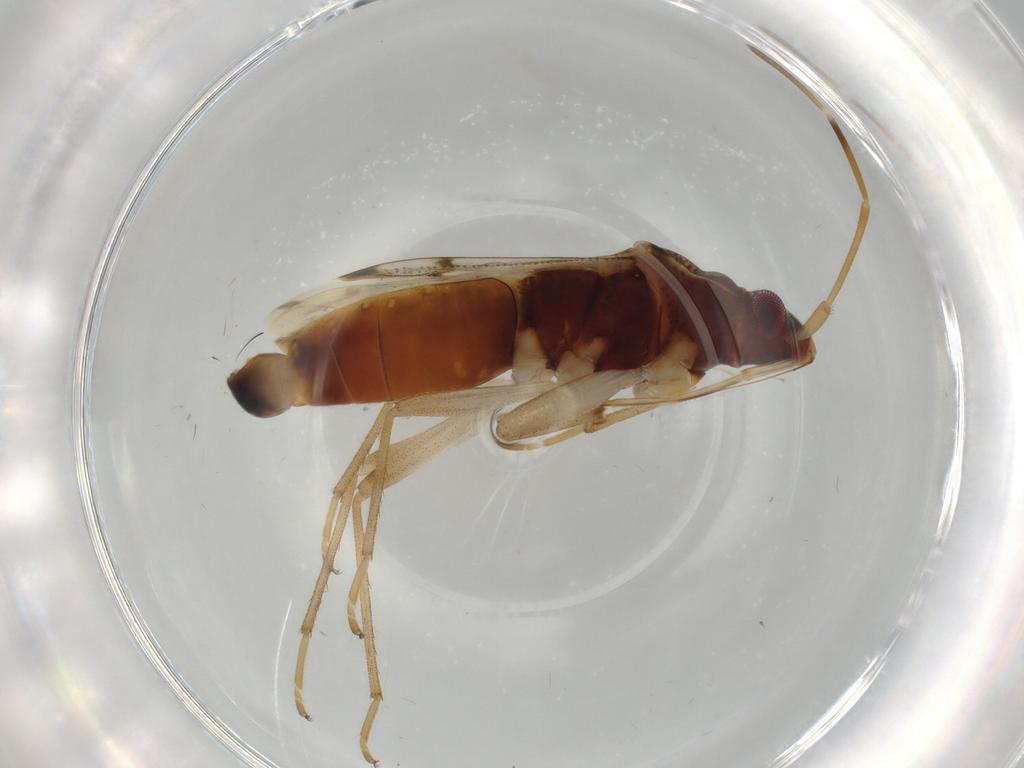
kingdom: Animalia
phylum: Arthropoda
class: Insecta
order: Hemiptera
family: Rhyparochromidae
